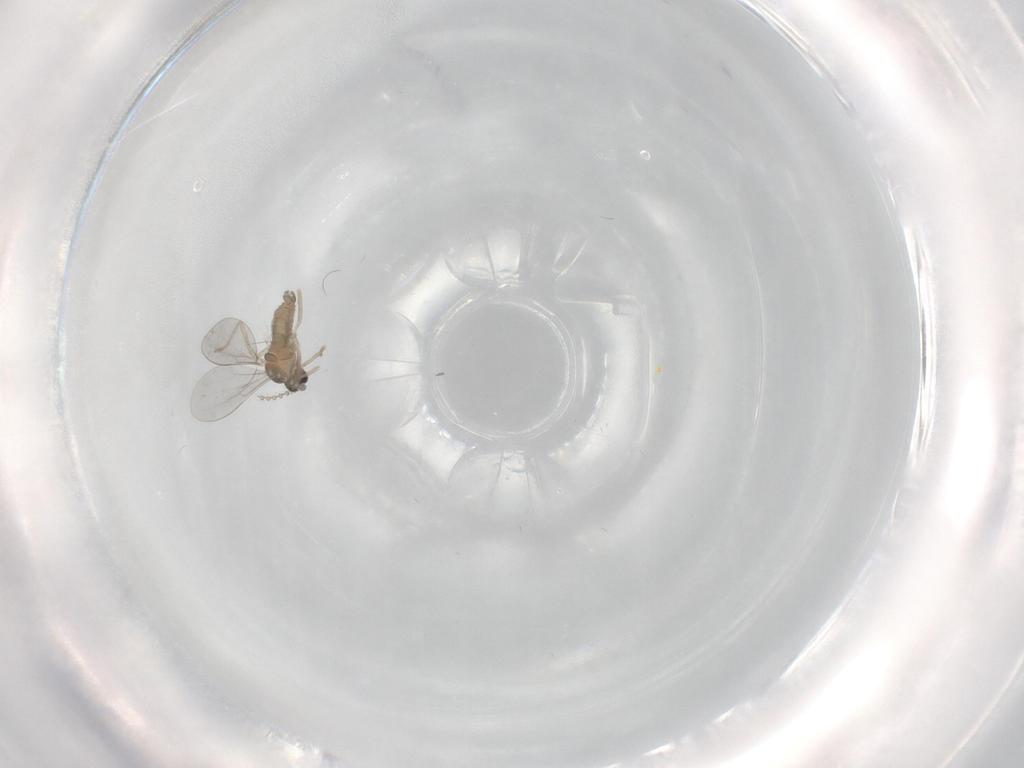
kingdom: Animalia
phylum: Arthropoda
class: Insecta
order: Diptera
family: Cecidomyiidae
